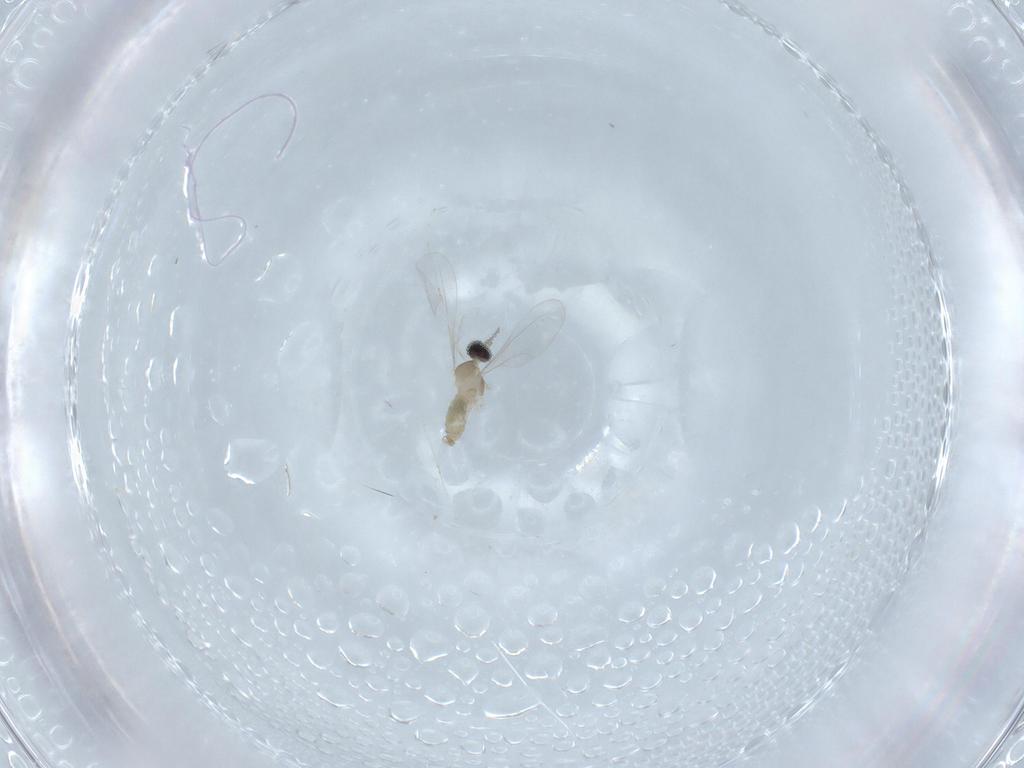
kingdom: Animalia
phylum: Arthropoda
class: Insecta
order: Diptera
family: Cecidomyiidae
